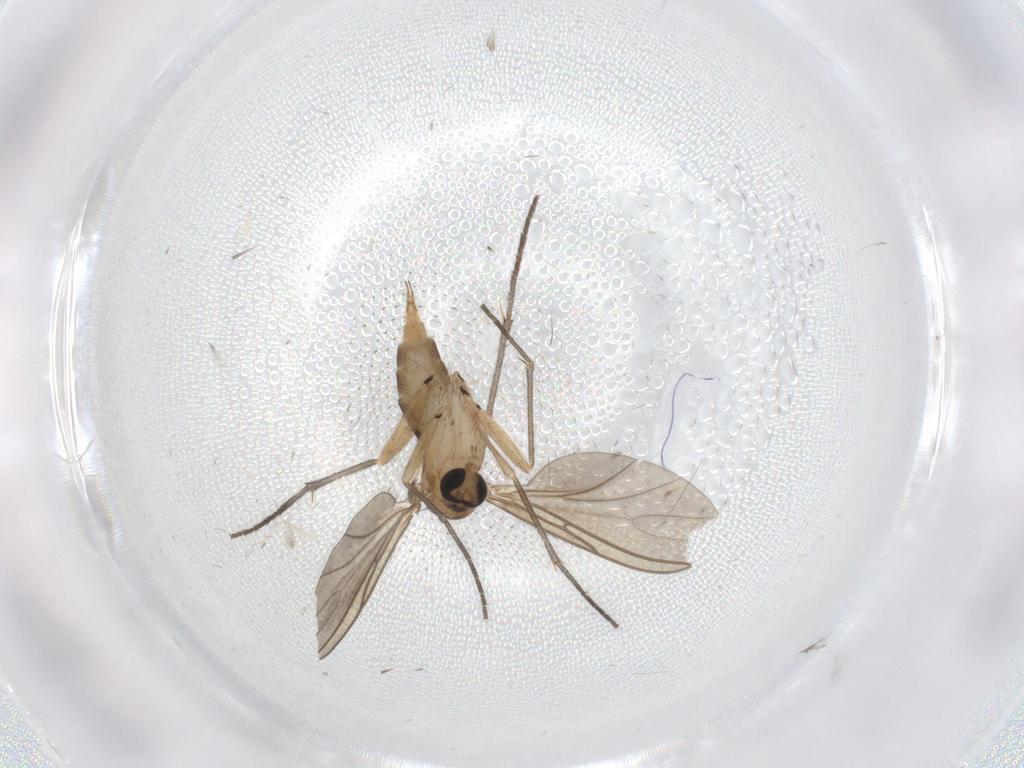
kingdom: Animalia
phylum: Arthropoda
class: Insecta
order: Diptera
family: Sciaridae
